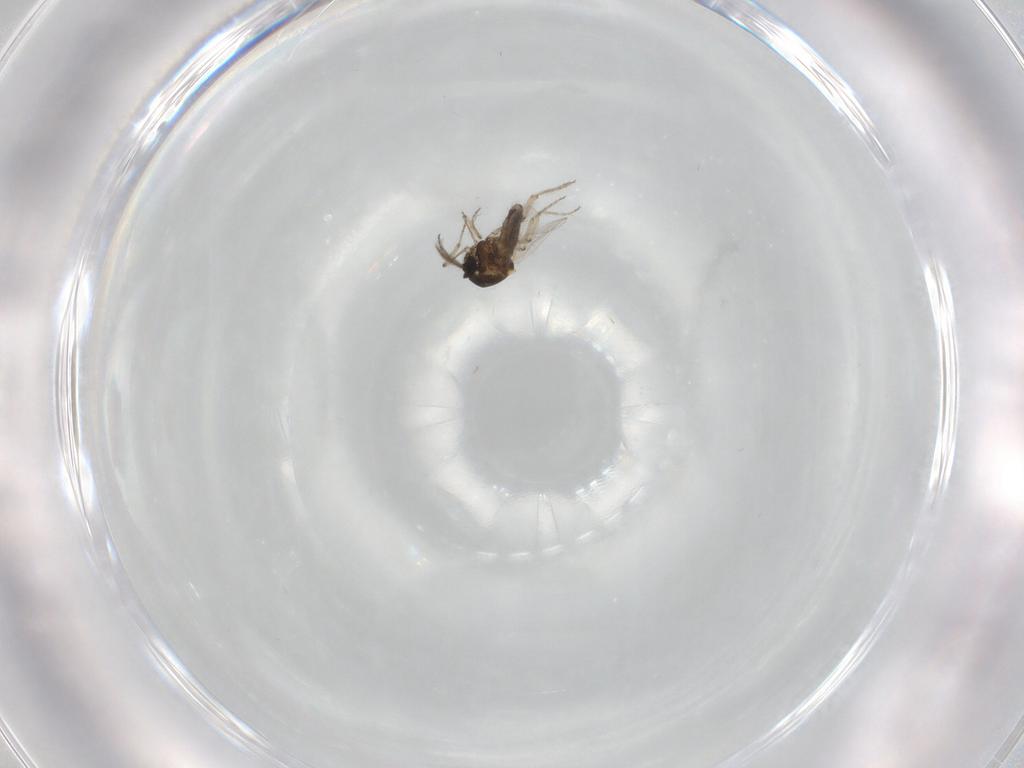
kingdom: Animalia
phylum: Arthropoda
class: Insecta
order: Diptera
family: Ceratopogonidae
